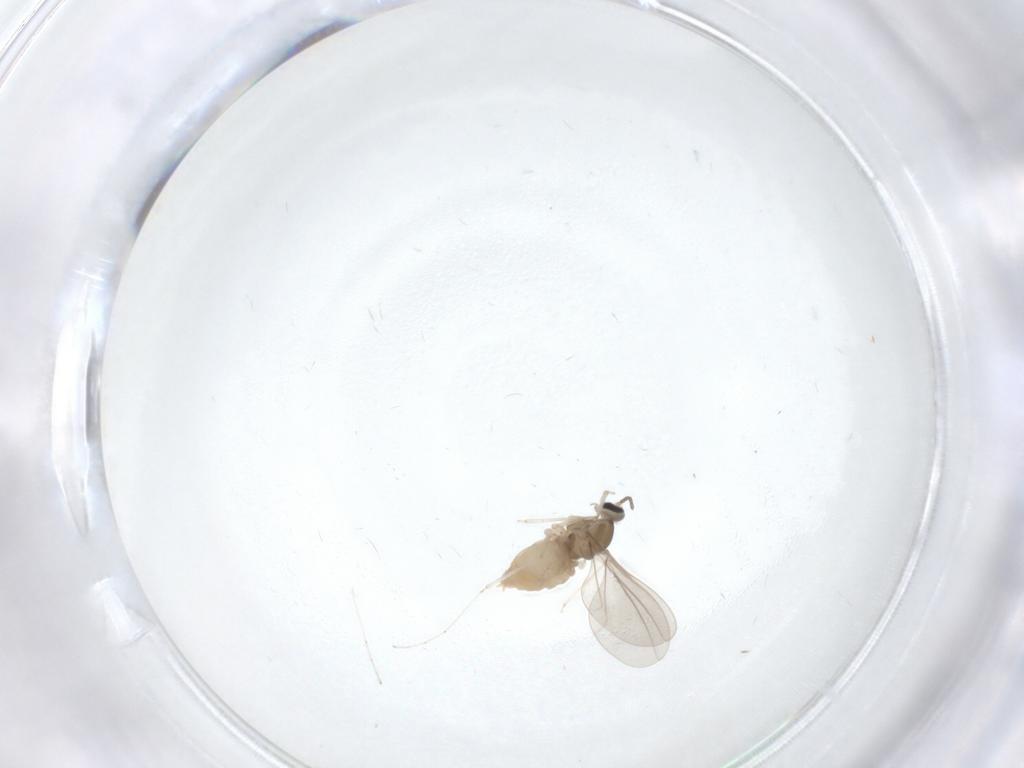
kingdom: Animalia
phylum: Arthropoda
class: Insecta
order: Diptera
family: Cecidomyiidae
